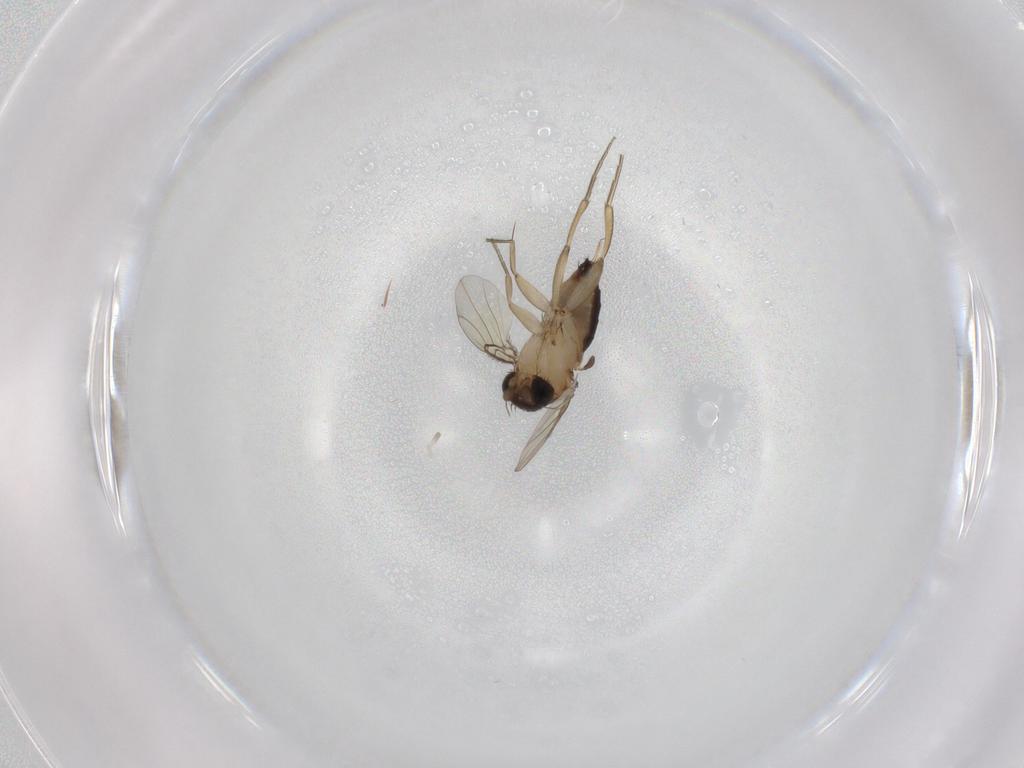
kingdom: Animalia
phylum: Arthropoda
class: Insecta
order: Diptera
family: Phoridae
